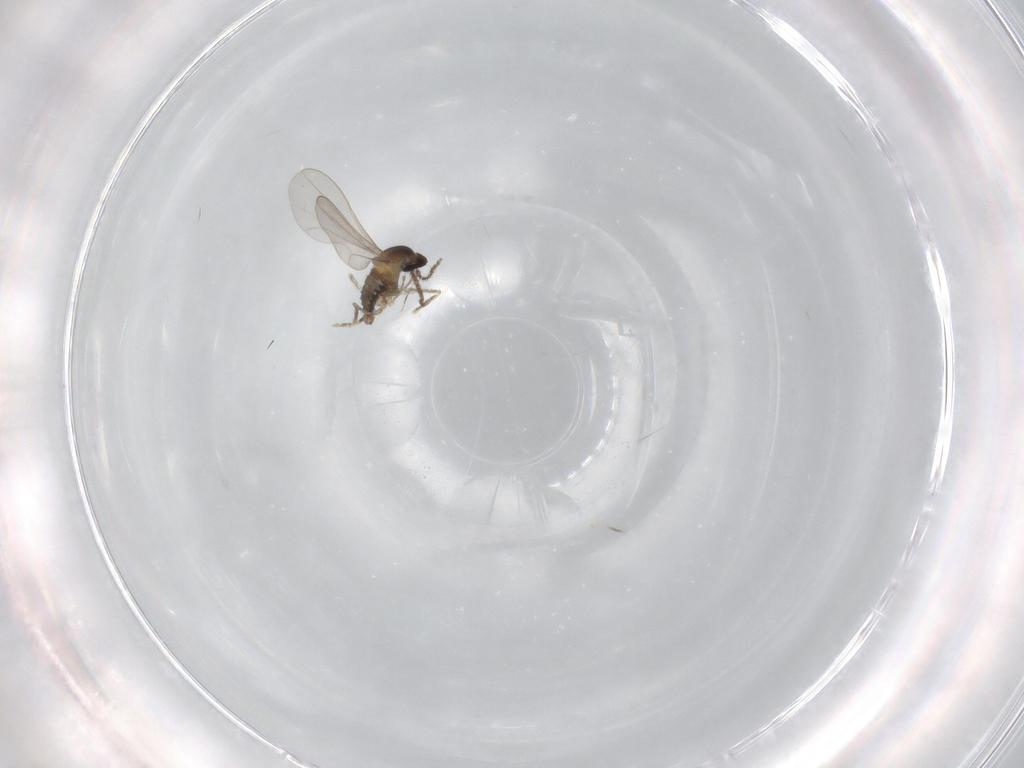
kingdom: Animalia
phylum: Arthropoda
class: Insecta
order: Diptera
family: Cecidomyiidae
